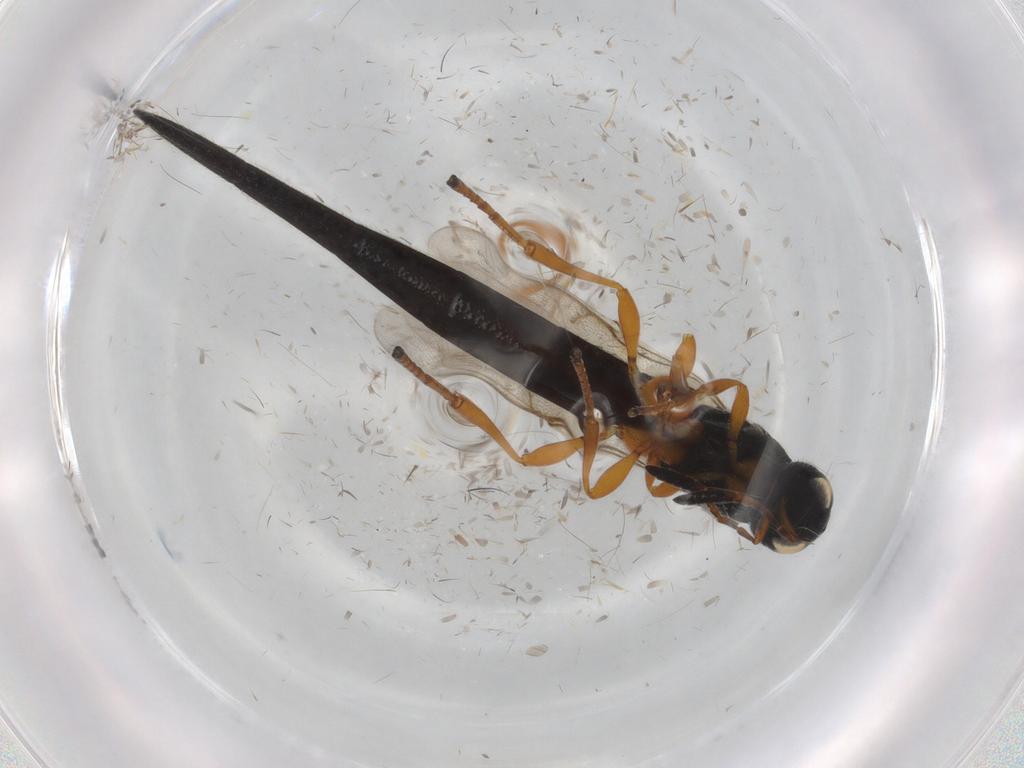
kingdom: Animalia
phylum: Arthropoda
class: Insecta
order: Hymenoptera
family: Scelionidae
